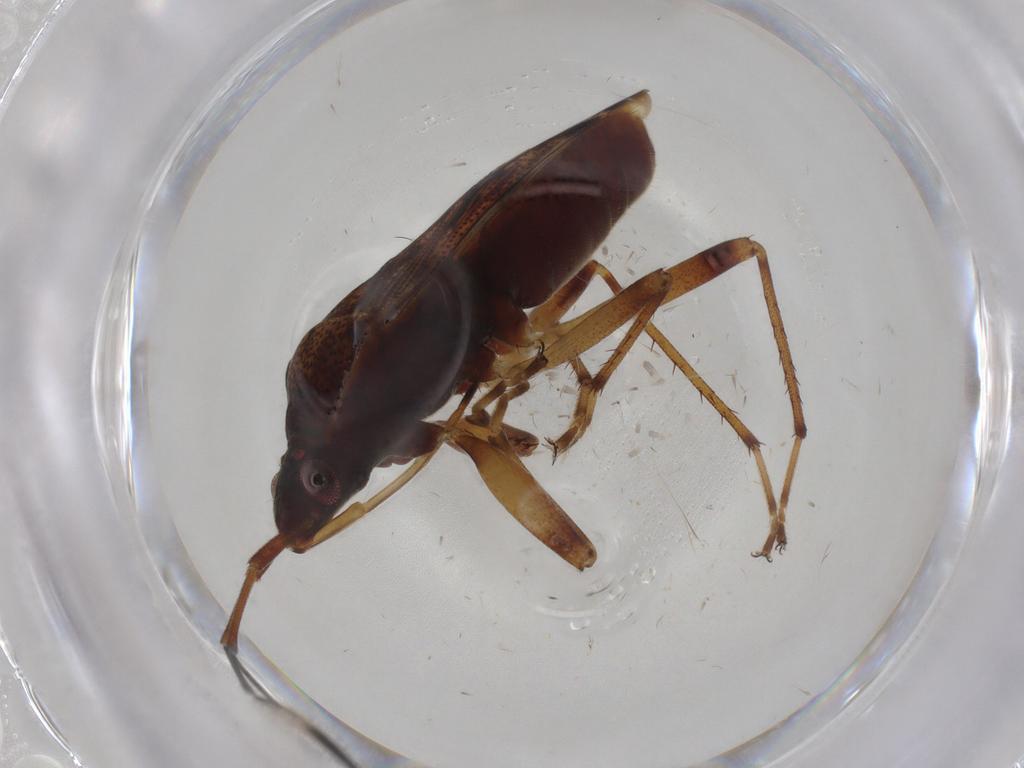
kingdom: Animalia
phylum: Arthropoda
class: Insecta
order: Hemiptera
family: Rhyparochromidae
